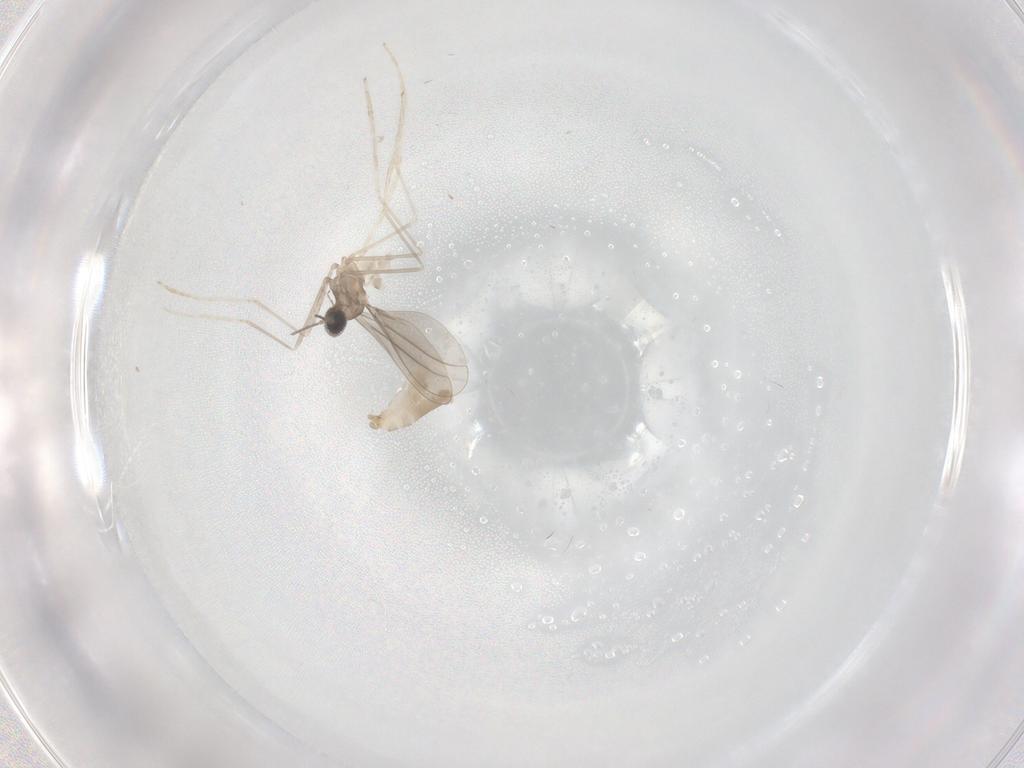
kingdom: Animalia
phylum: Arthropoda
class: Insecta
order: Diptera
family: Cecidomyiidae
